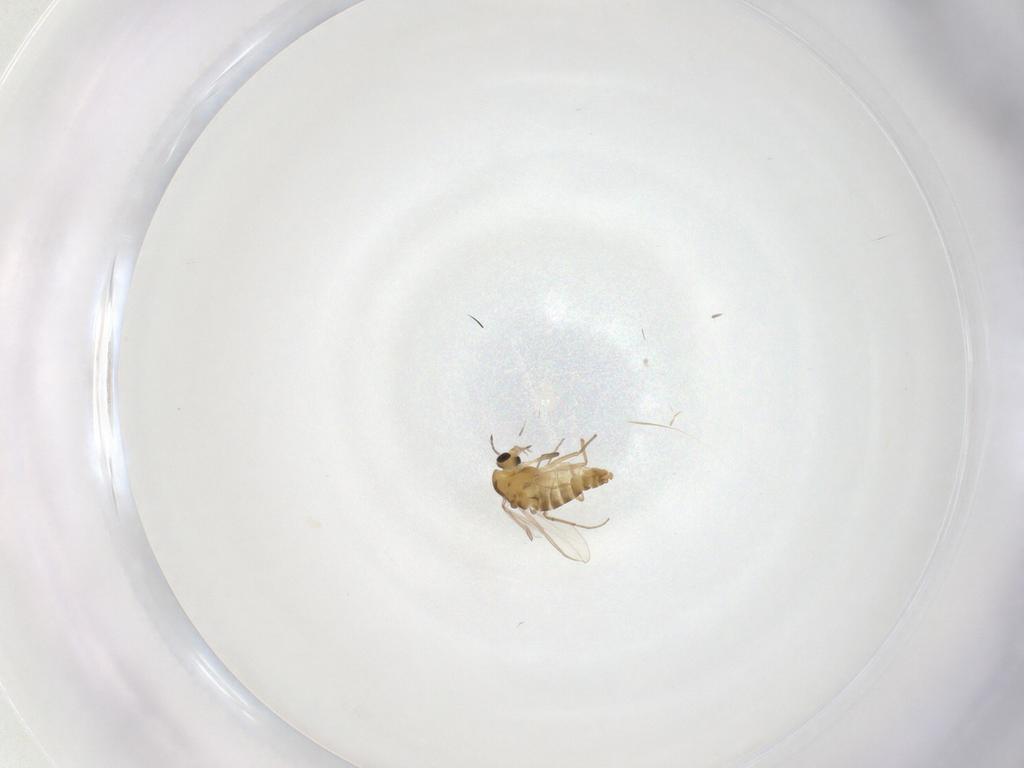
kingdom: Animalia
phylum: Arthropoda
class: Insecta
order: Diptera
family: Chironomidae
